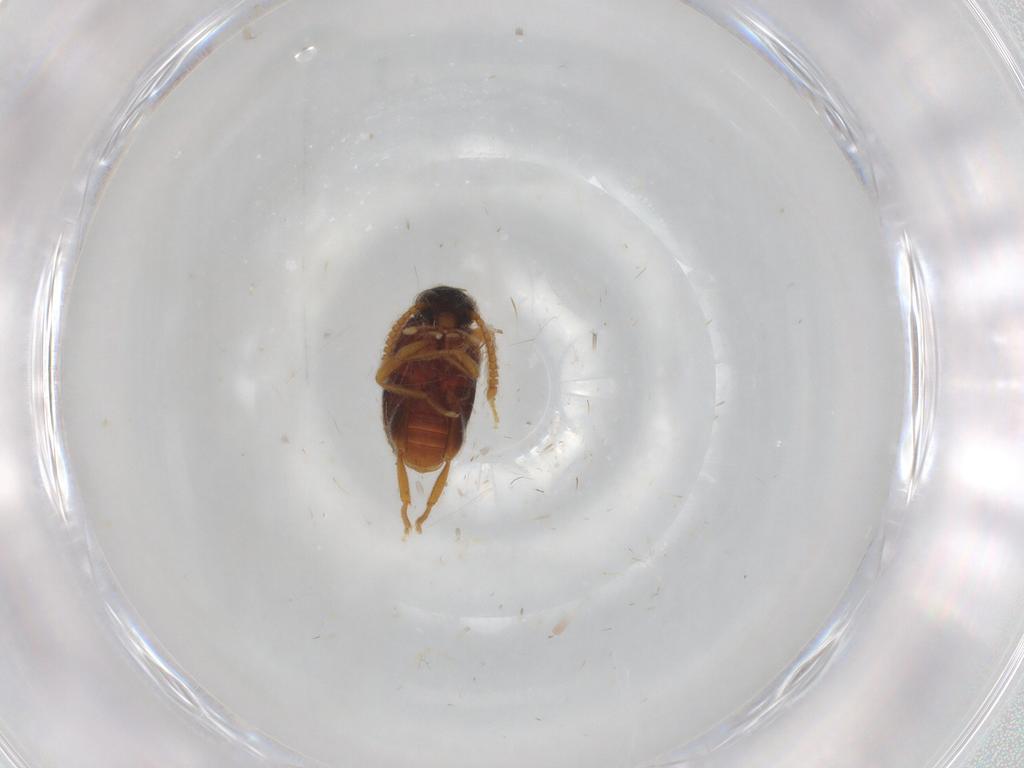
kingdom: Animalia
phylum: Arthropoda
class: Insecta
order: Coleoptera
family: Aderidae
